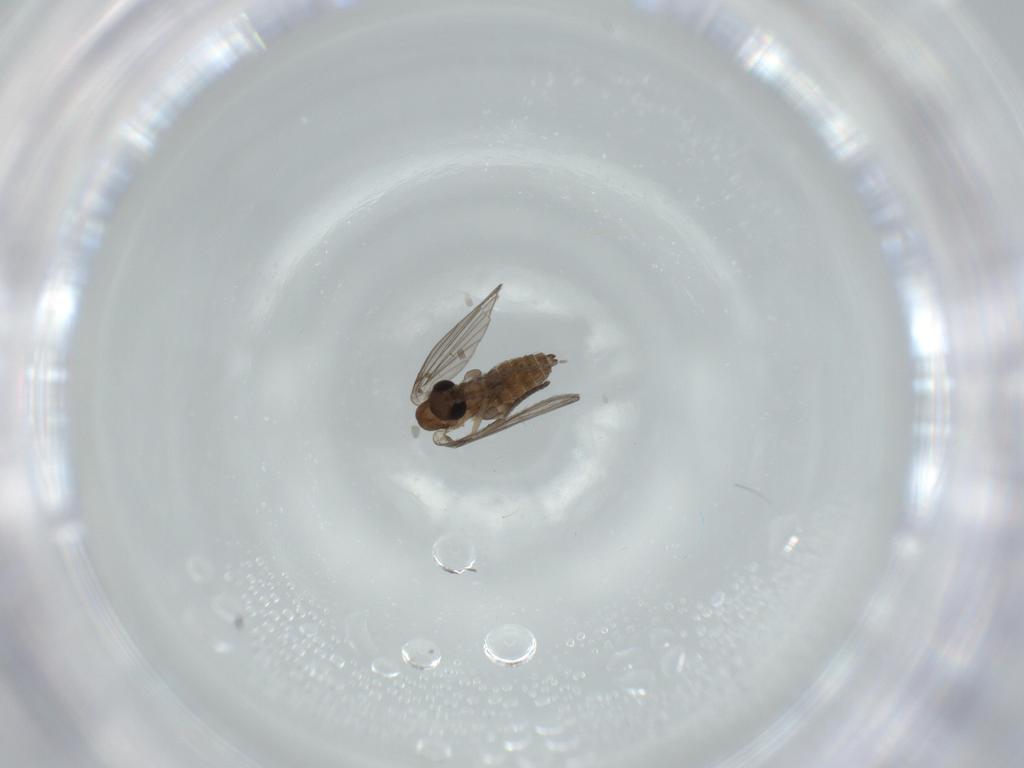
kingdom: Animalia
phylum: Arthropoda
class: Insecta
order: Diptera
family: Psychodidae
